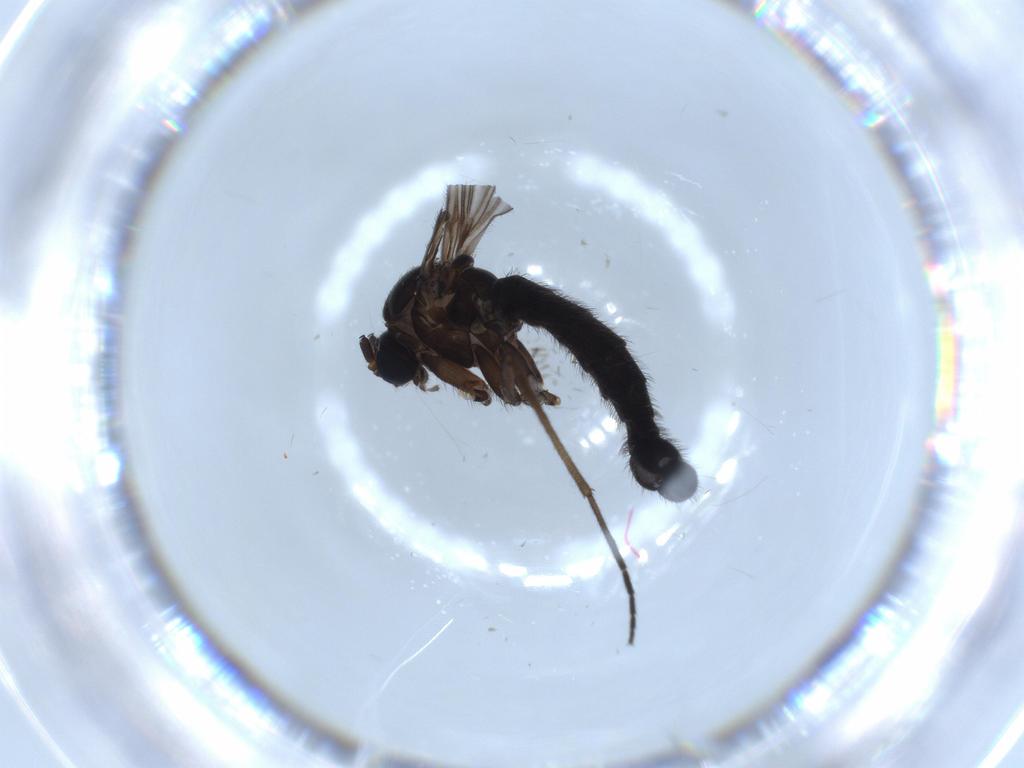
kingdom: Animalia
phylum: Arthropoda
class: Insecta
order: Diptera
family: Sciaridae
